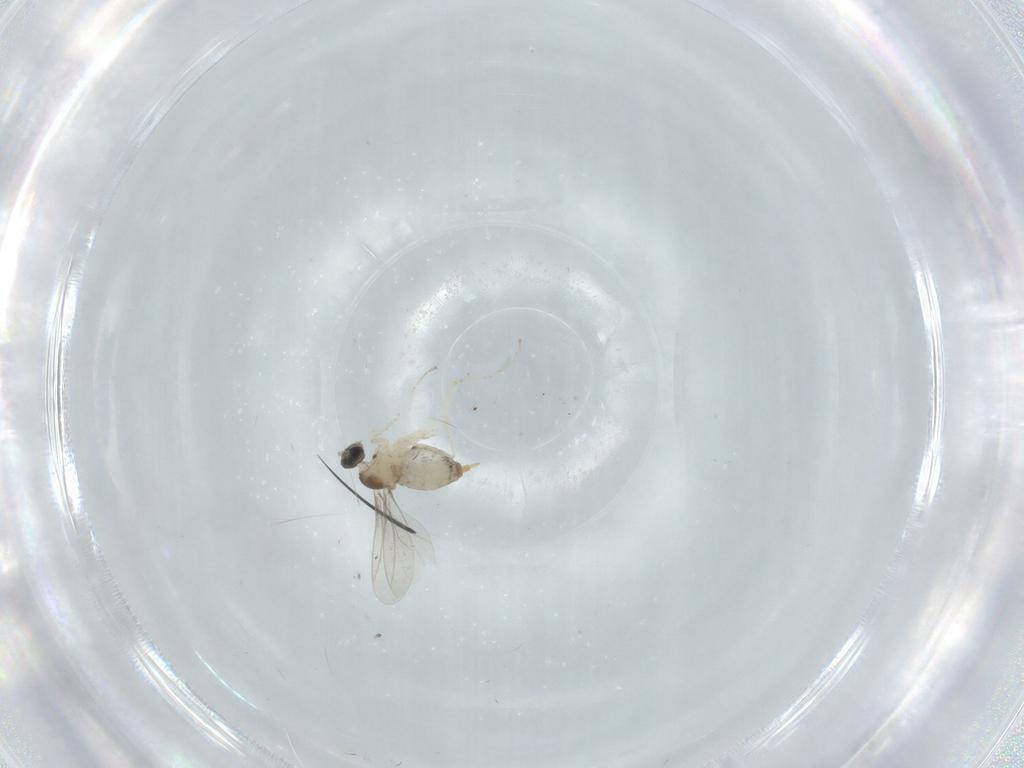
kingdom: Animalia
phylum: Arthropoda
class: Insecta
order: Diptera
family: Cecidomyiidae
